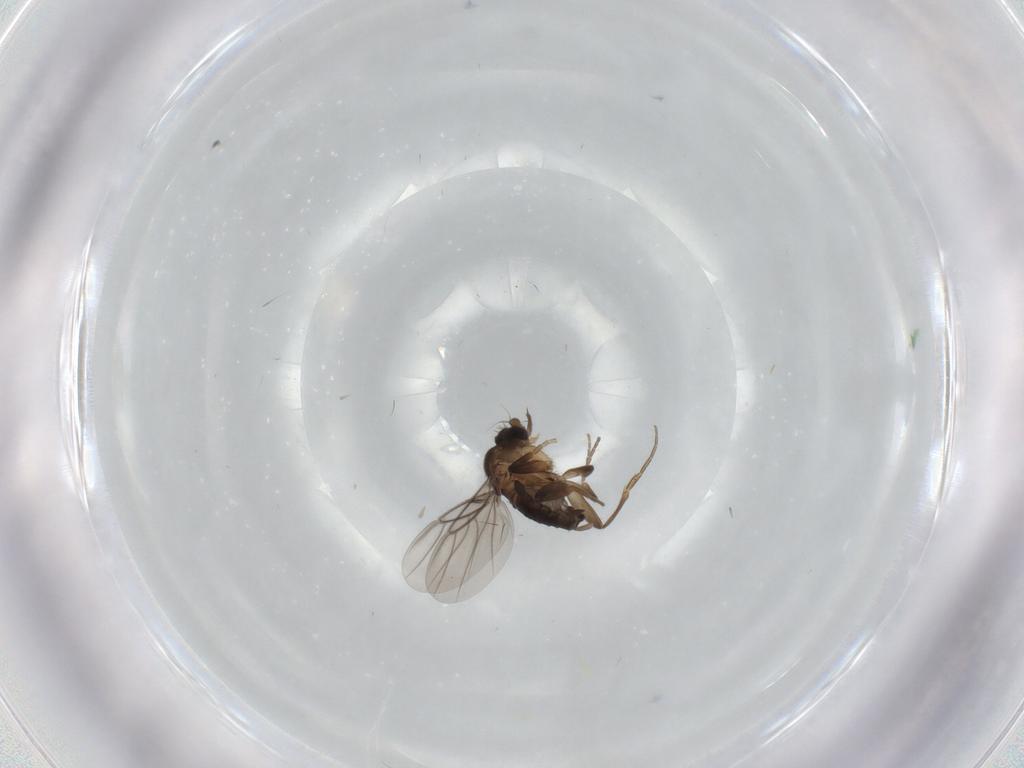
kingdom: Animalia
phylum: Arthropoda
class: Insecta
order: Diptera
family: Phoridae
